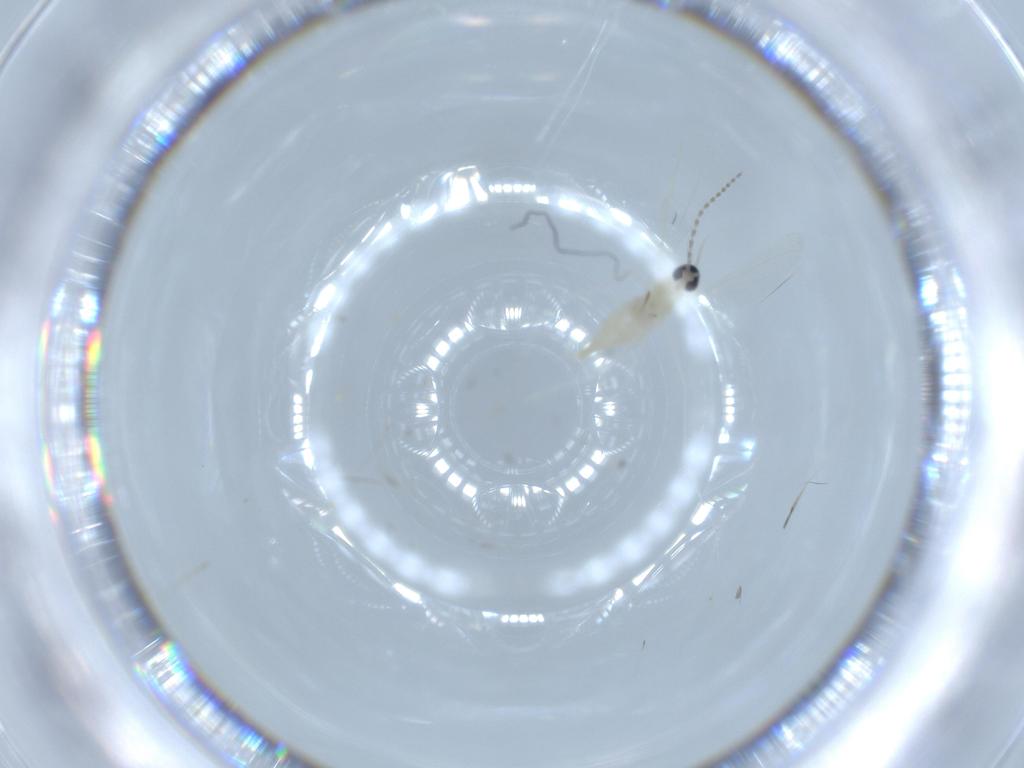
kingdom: Animalia
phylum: Arthropoda
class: Insecta
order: Diptera
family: Cecidomyiidae
